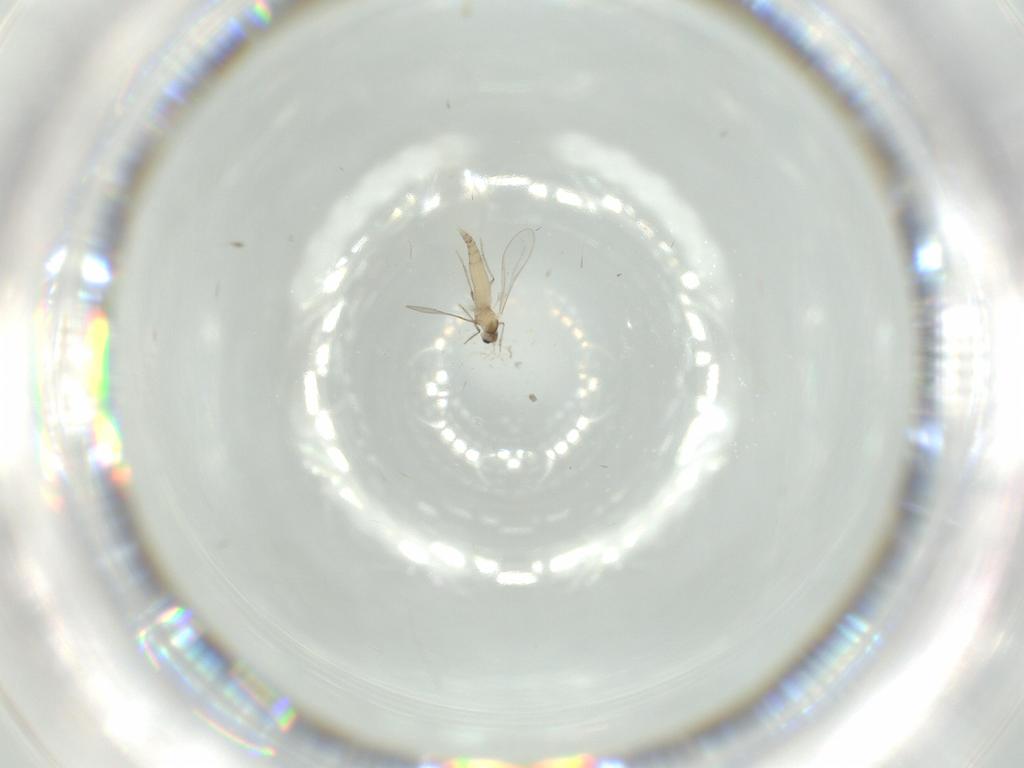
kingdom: Animalia
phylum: Arthropoda
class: Insecta
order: Diptera
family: Cecidomyiidae
